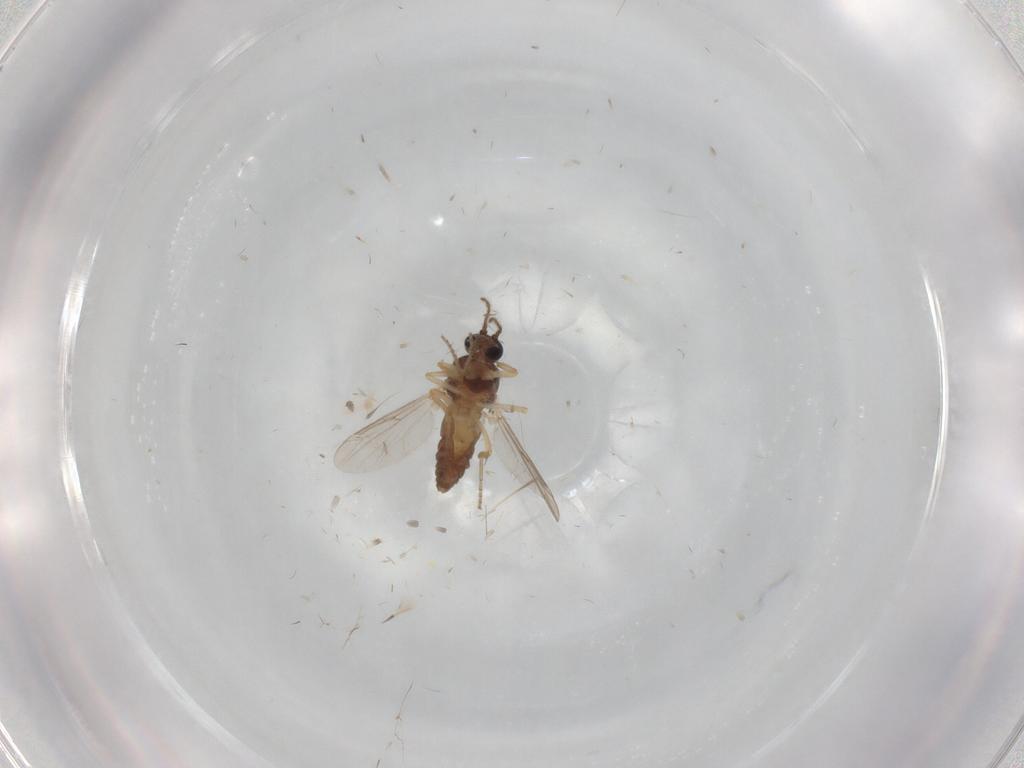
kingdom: Animalia
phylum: Arthropoda
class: Insecta
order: Diptera
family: Ceratopogonidae
